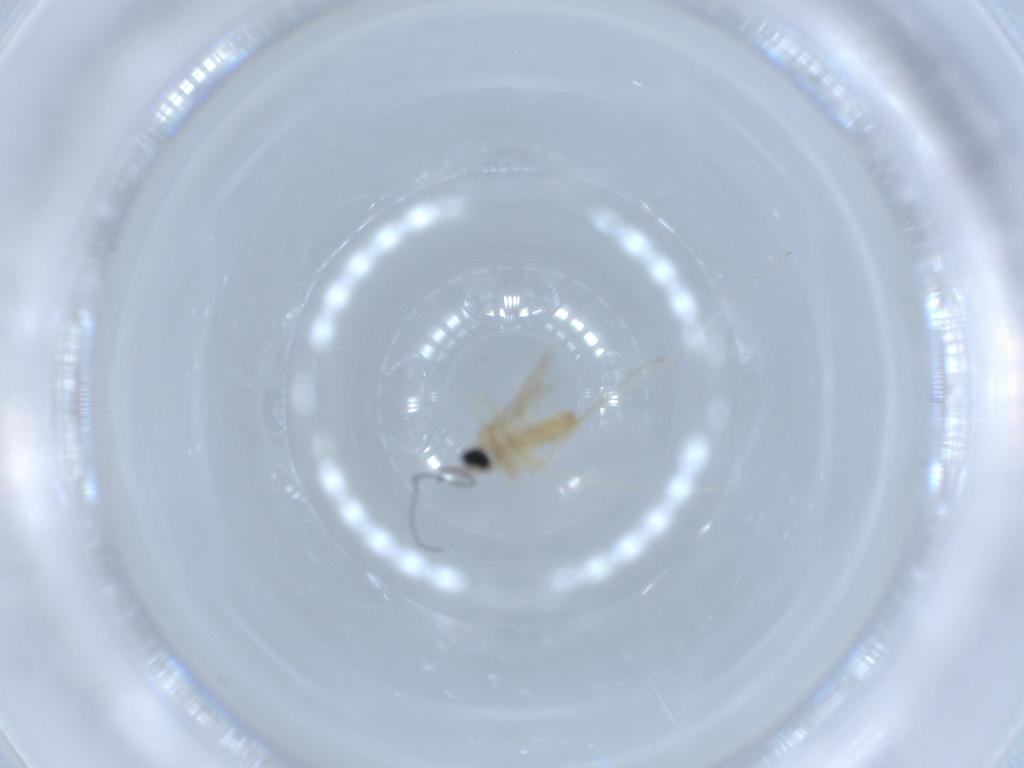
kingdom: Animalia
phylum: Arthropoda
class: Insecta
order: Diptera
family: Cecidomyiidae
